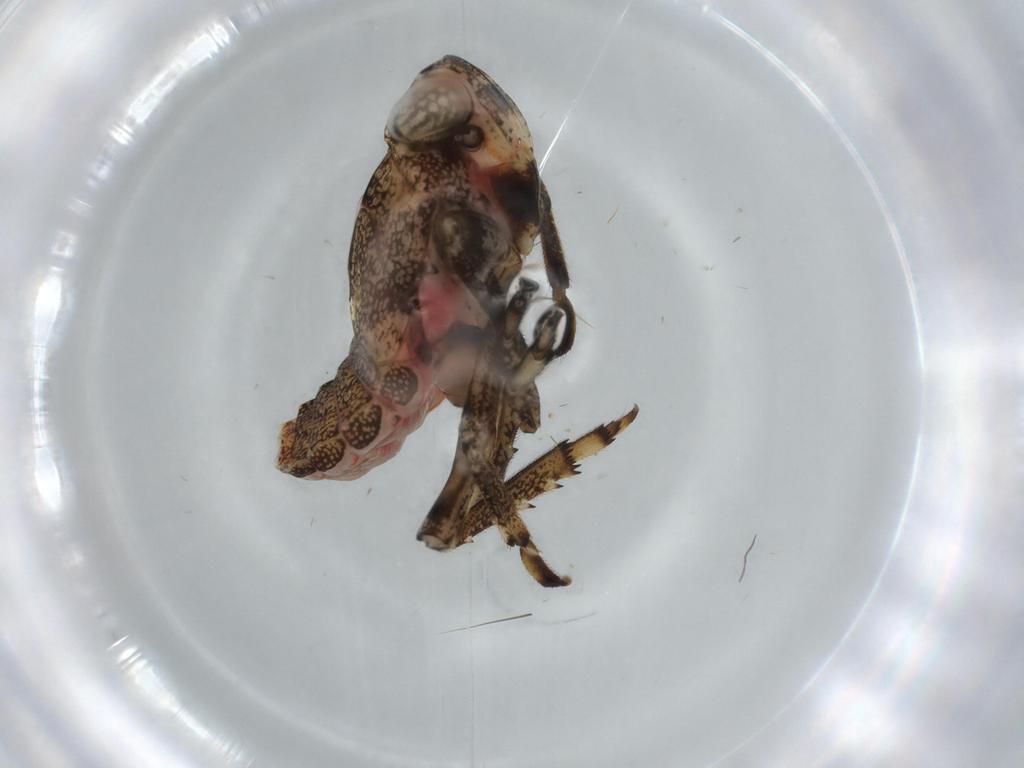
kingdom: Animalia
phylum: Arthropoda
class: Insecta
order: Hemiptera
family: Issidae
